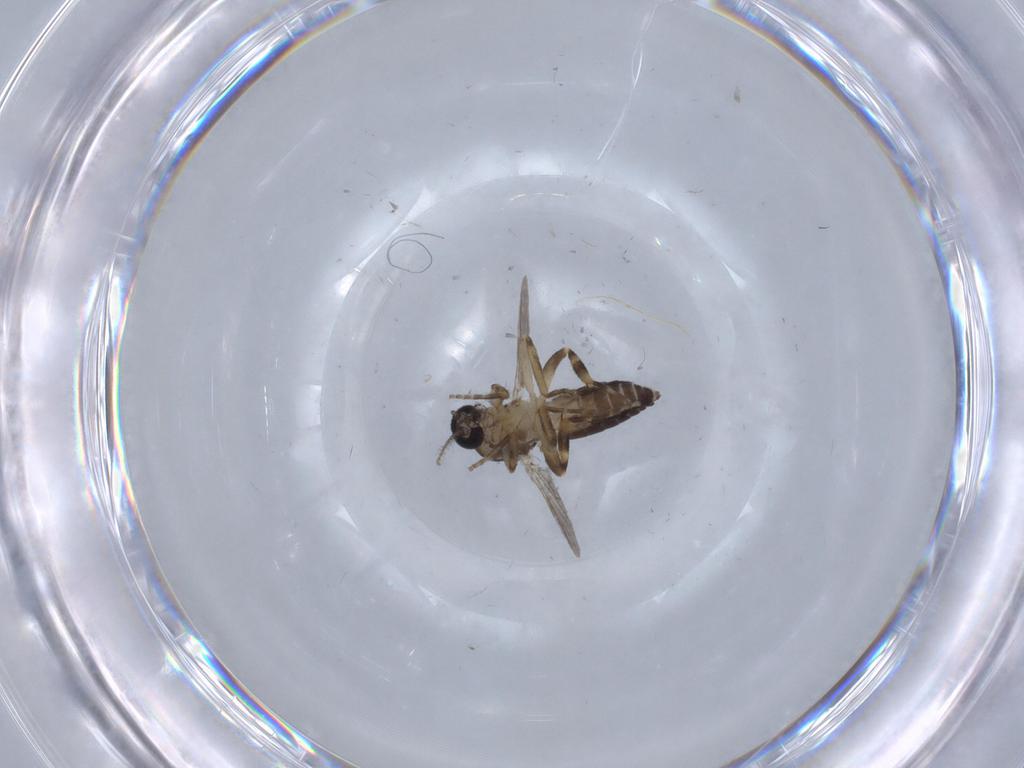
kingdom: Animalia
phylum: Arthropoda
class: Insecta
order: Diptera
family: Ceratopogonidae
